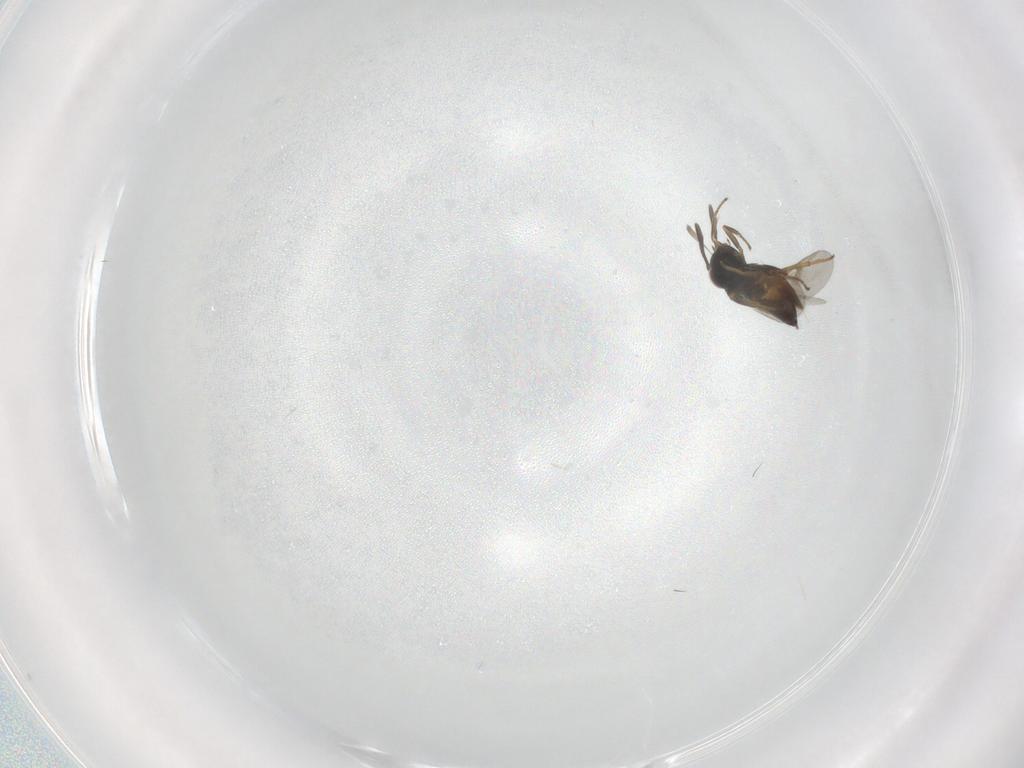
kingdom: Animalia
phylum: Arthropoda
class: Insecta
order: Hymenoptera
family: Encyrtidae
